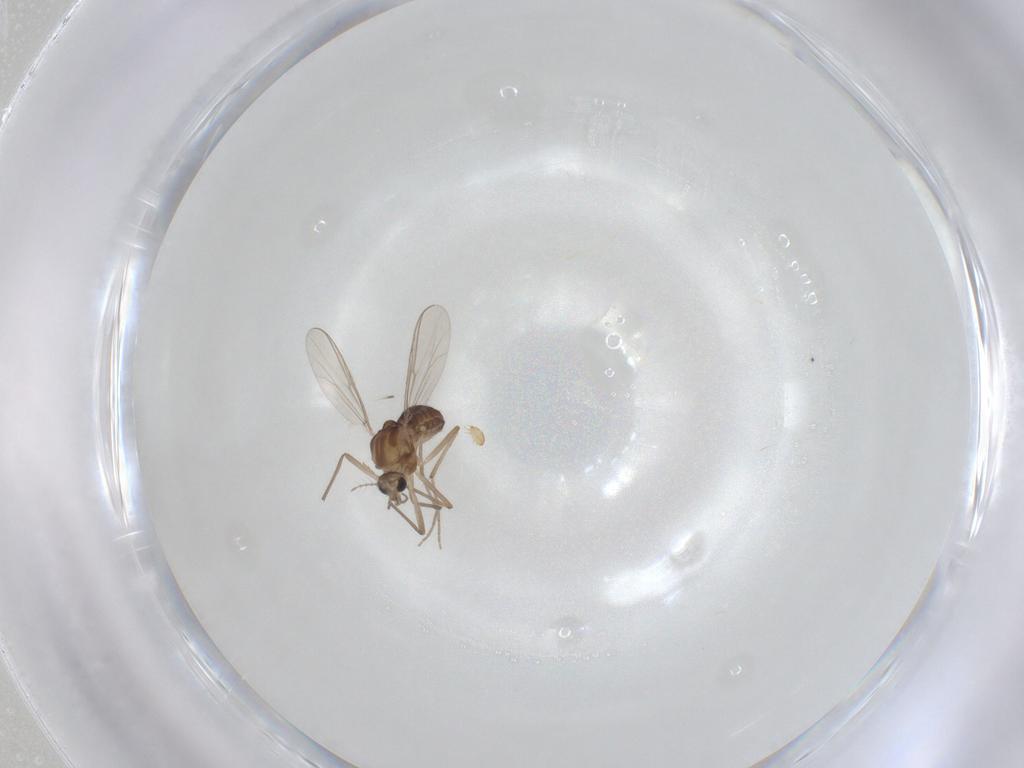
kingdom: Animalia
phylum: Arthropoda
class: Insecta
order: Diptera
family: Chironomidae
